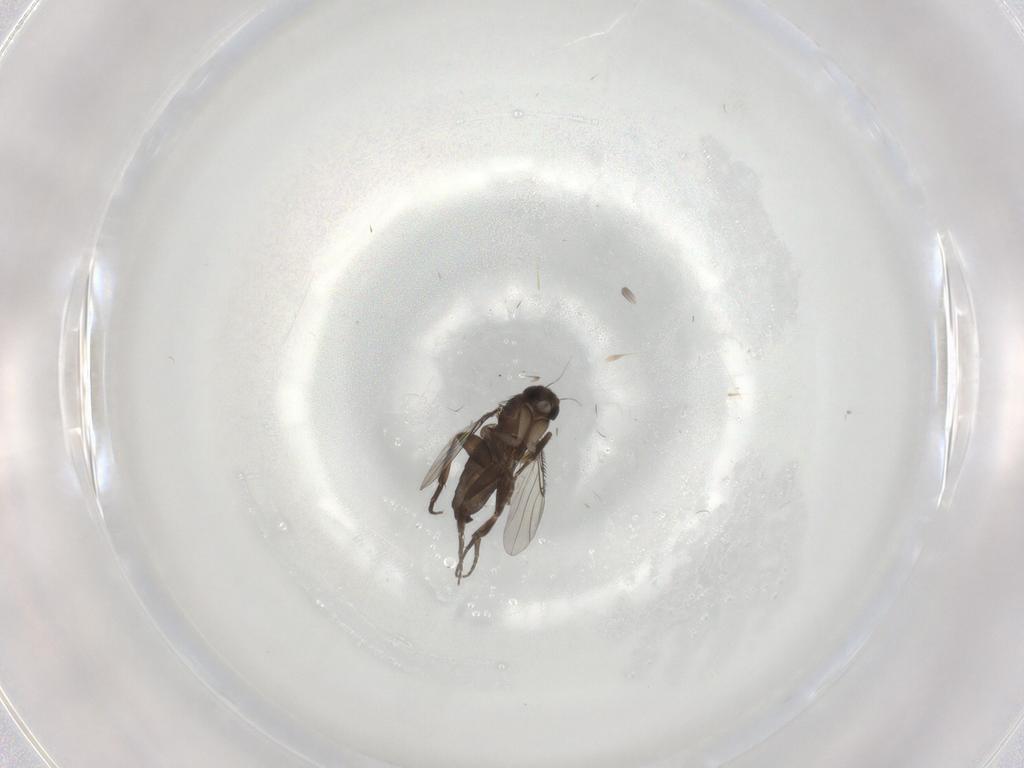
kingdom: Animalia
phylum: Arthropoda
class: Insecta
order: Diptera
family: Phoridae
